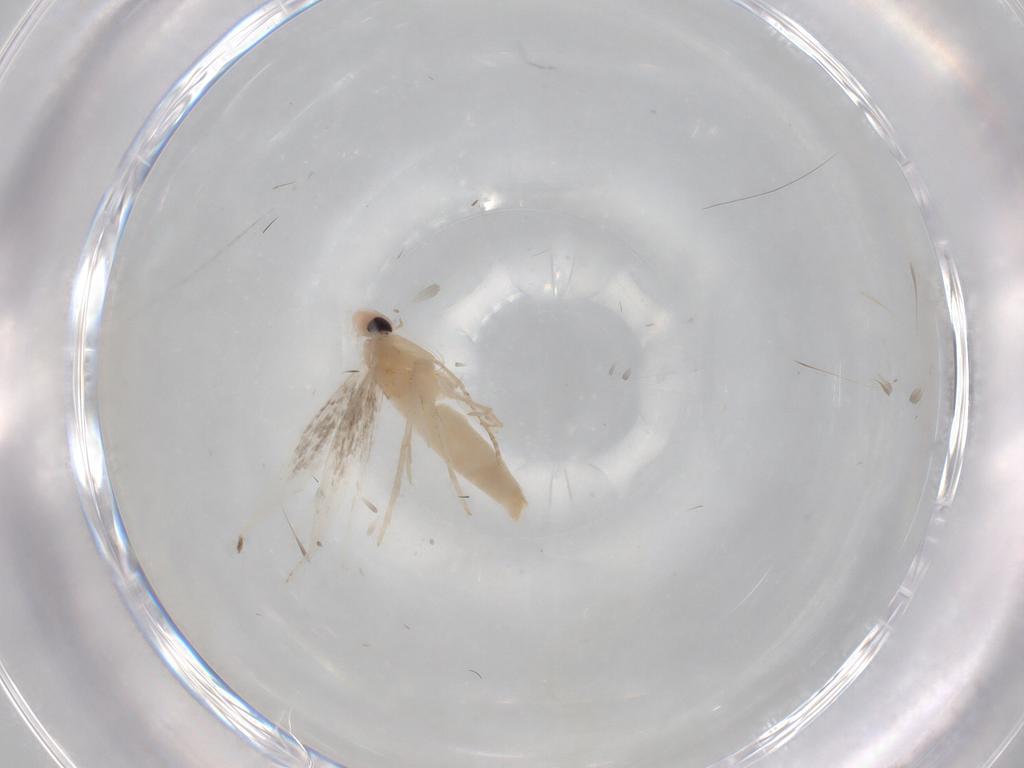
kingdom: Animalia
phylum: Arthropoda
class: Insecta
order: Lepidoptera
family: Gracillariidae
